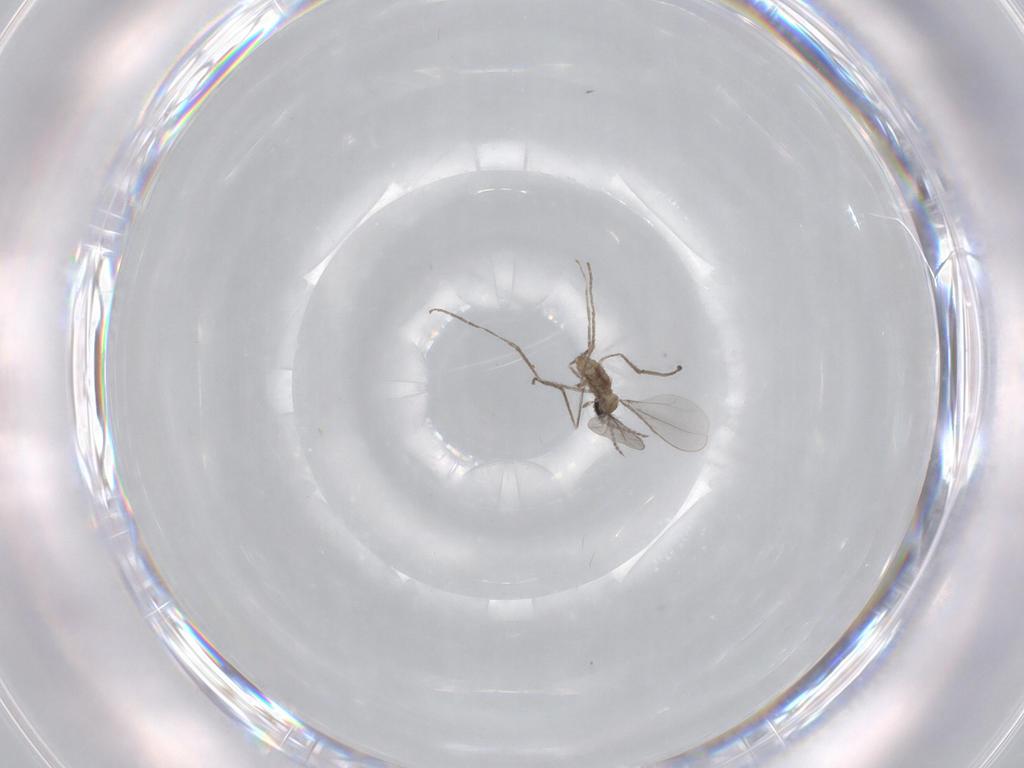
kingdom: Animalia
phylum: Arthropoda
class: Insecta
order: Diptera
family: Cecidomyiidae
